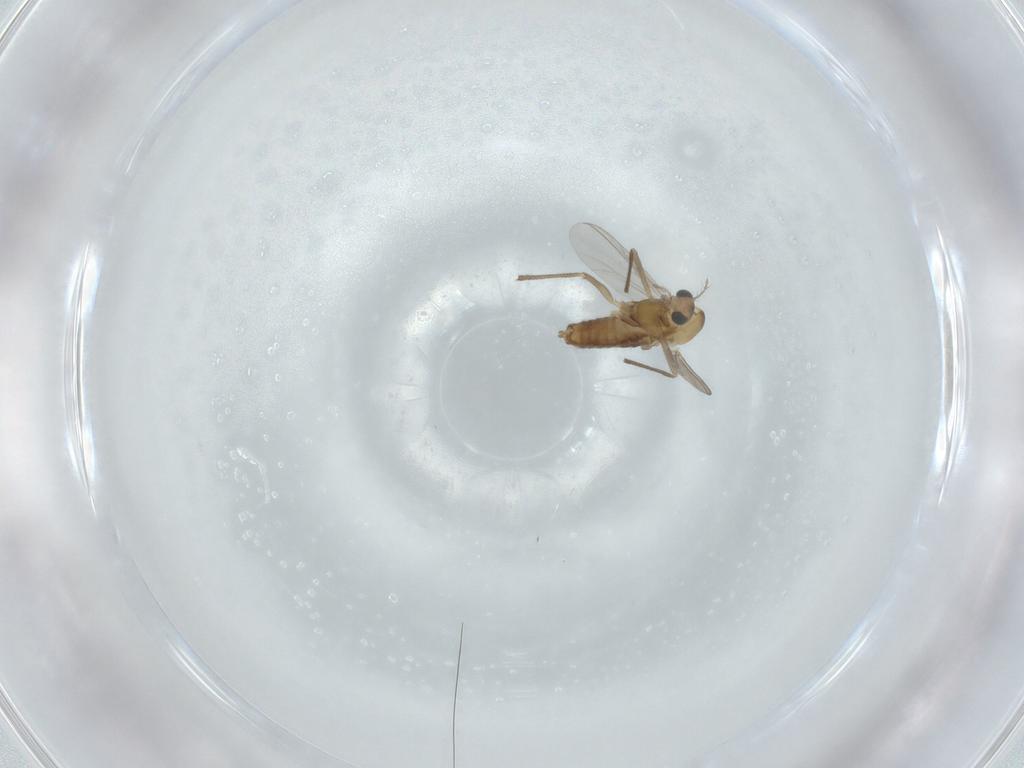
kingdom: Animalia
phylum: Arthropoda
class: Insecta
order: Diptera
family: Chironomidae
